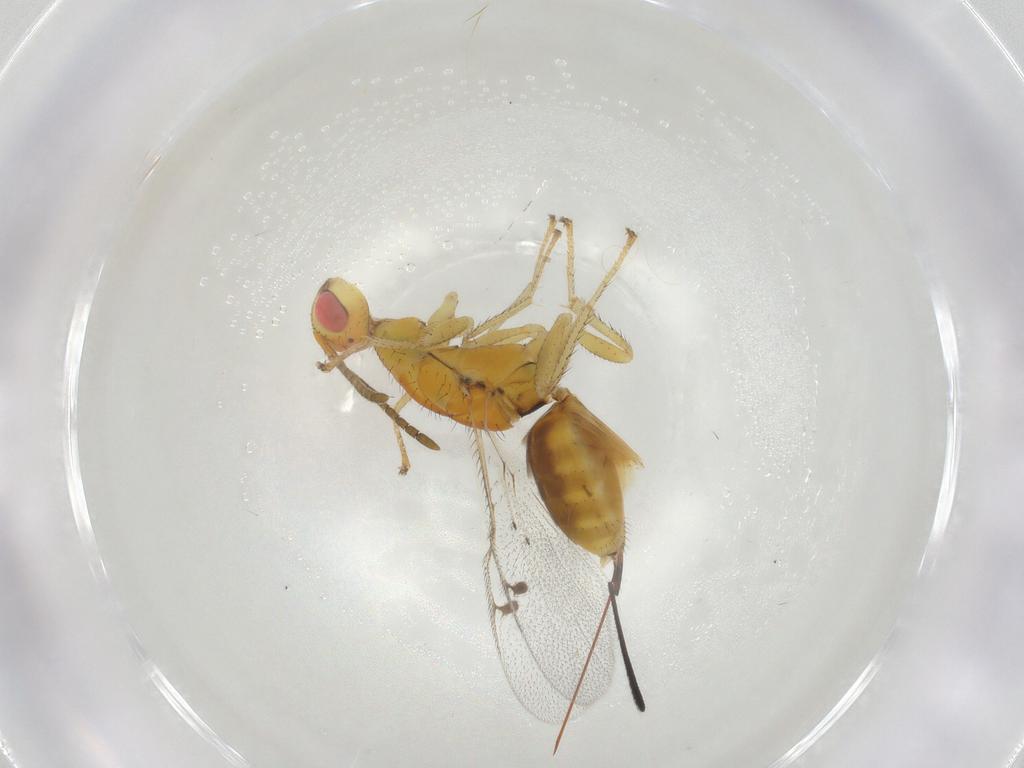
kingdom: Animalia
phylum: Arthropoda
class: Insecta
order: Hymenoptera
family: Megastigmidae
